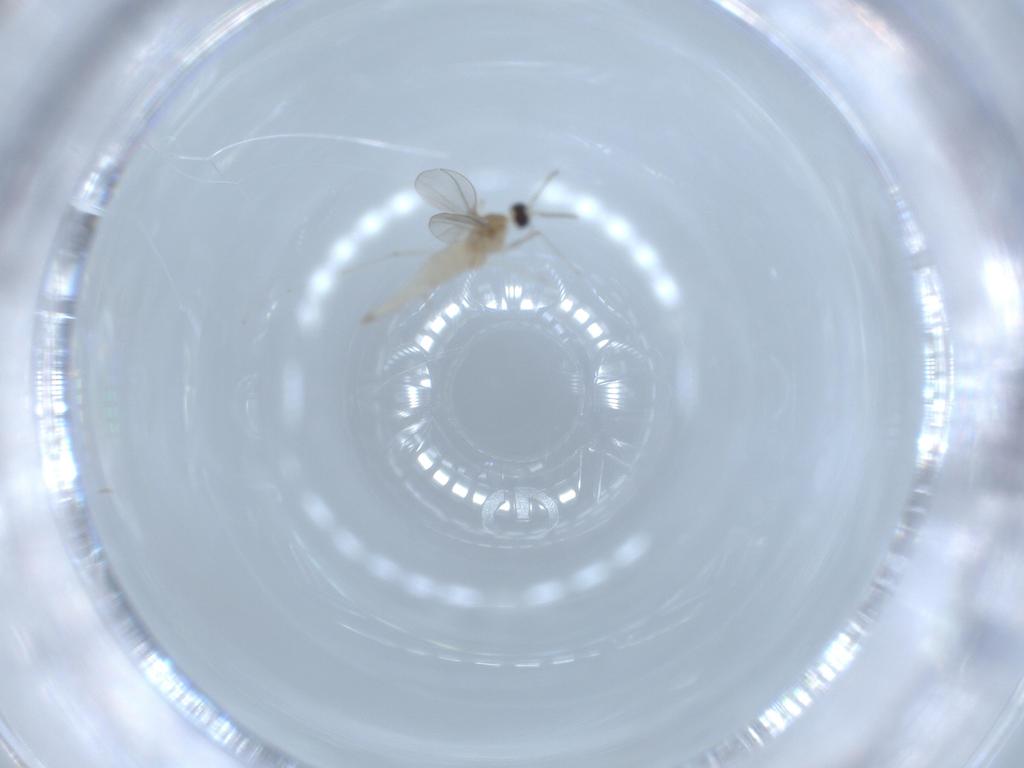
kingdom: Animalia
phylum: Arthropoda
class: Insecta
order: Diptera
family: Cecidomyiidae
